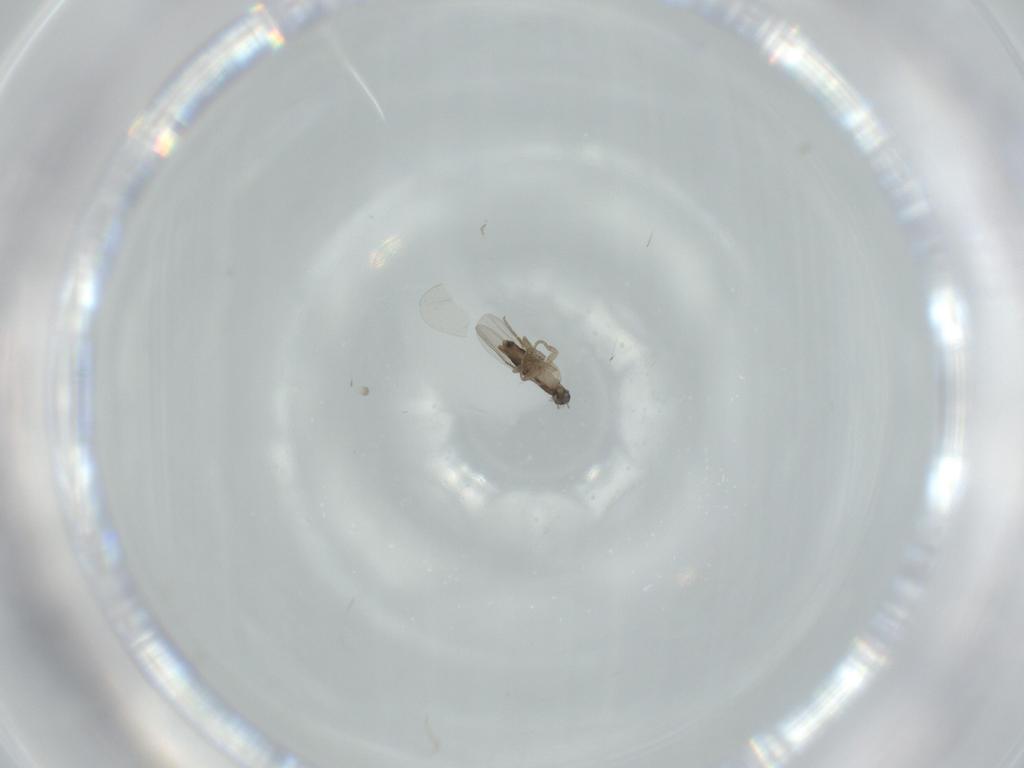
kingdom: Animalia
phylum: Arthropoda
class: Insecta
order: Diptera
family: Phoridae
